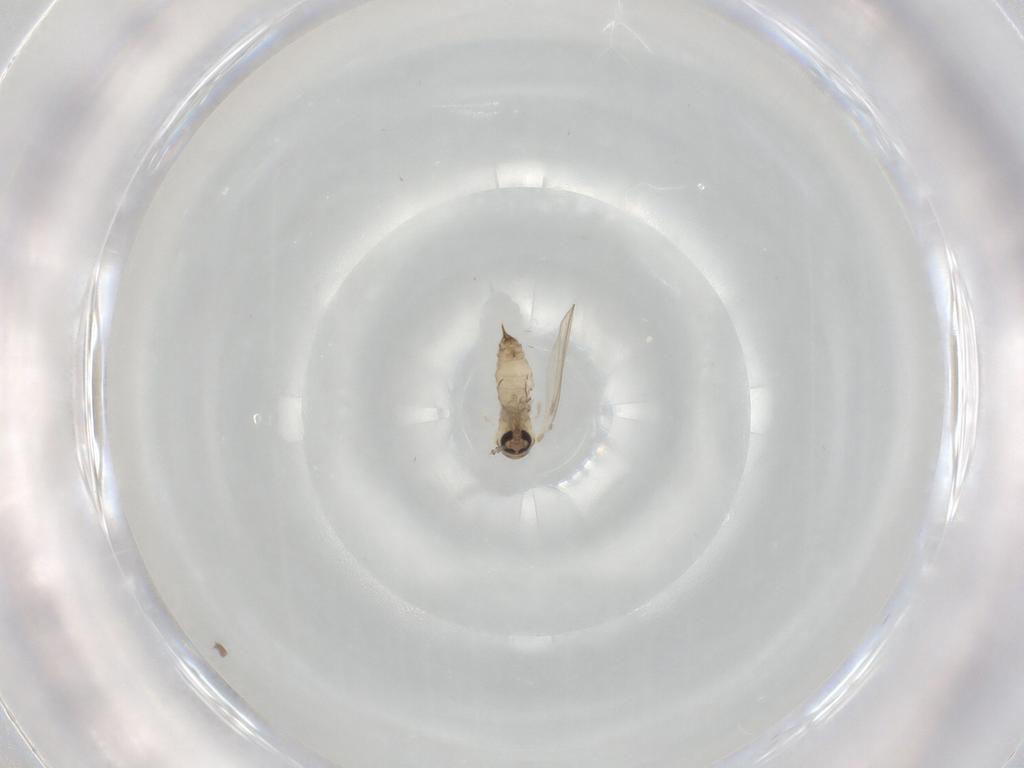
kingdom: Animalia
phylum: Arthropoda
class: Insecta
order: Diptera
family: Psychodidae
